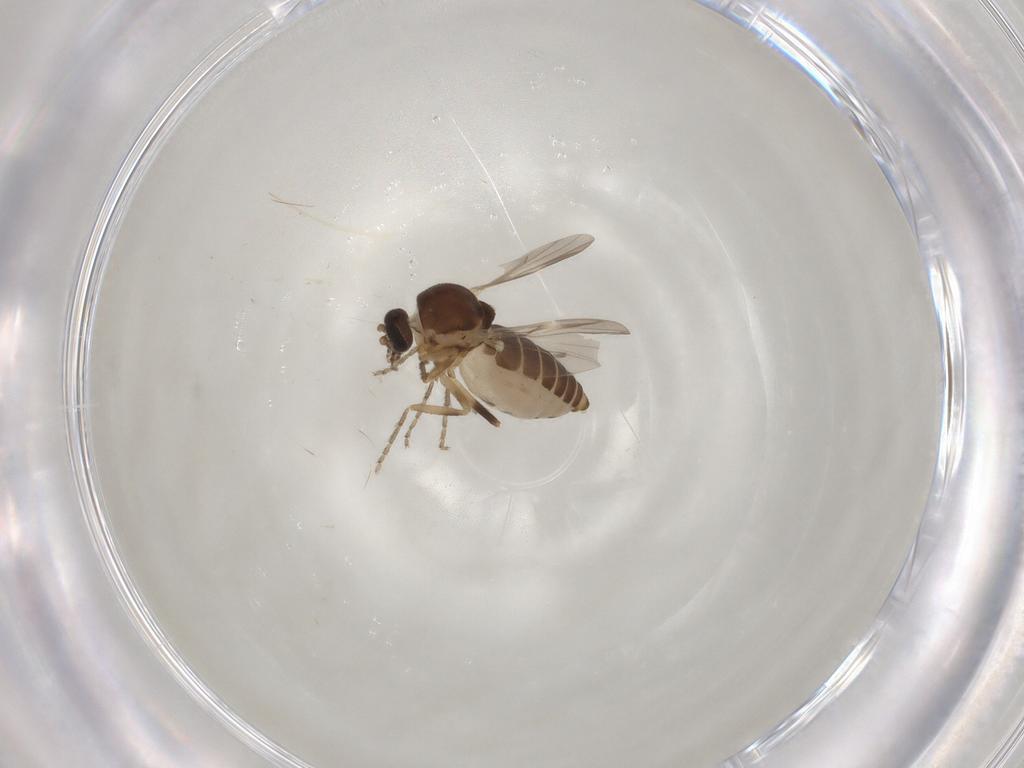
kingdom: Animalia
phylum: Arthropoda
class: Insecta
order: Diptera
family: Ceratopogonidae
